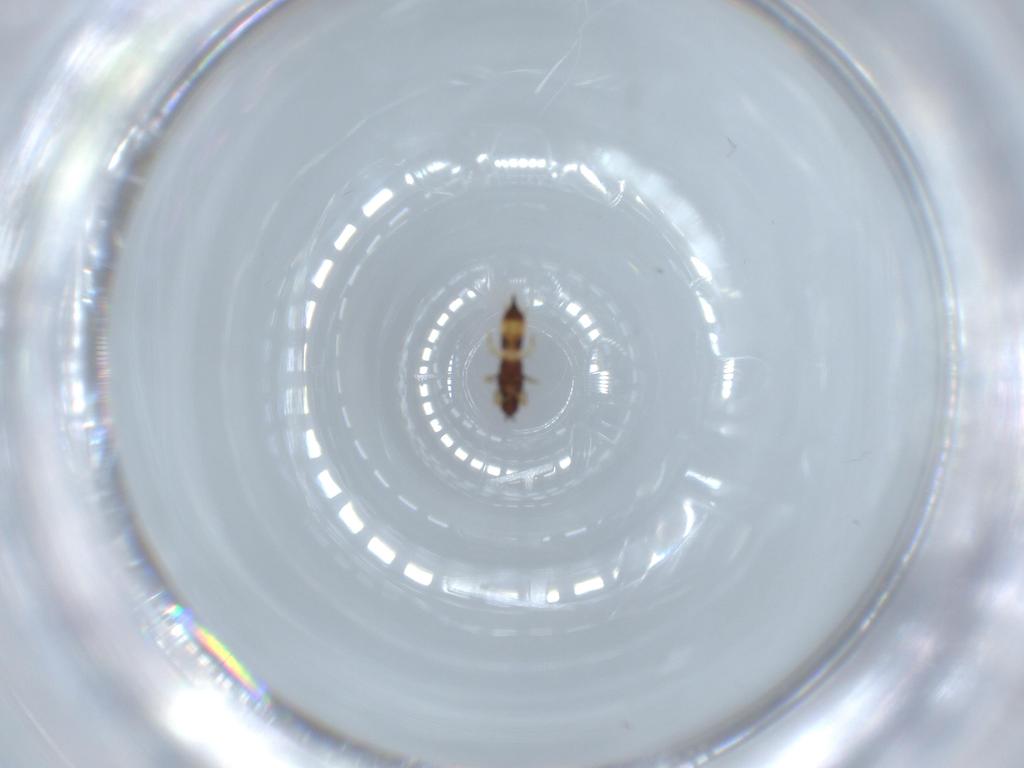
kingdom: Animalia
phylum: Arthropoda
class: Insecta
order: Thysanoptera
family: Phlaeothripidae
